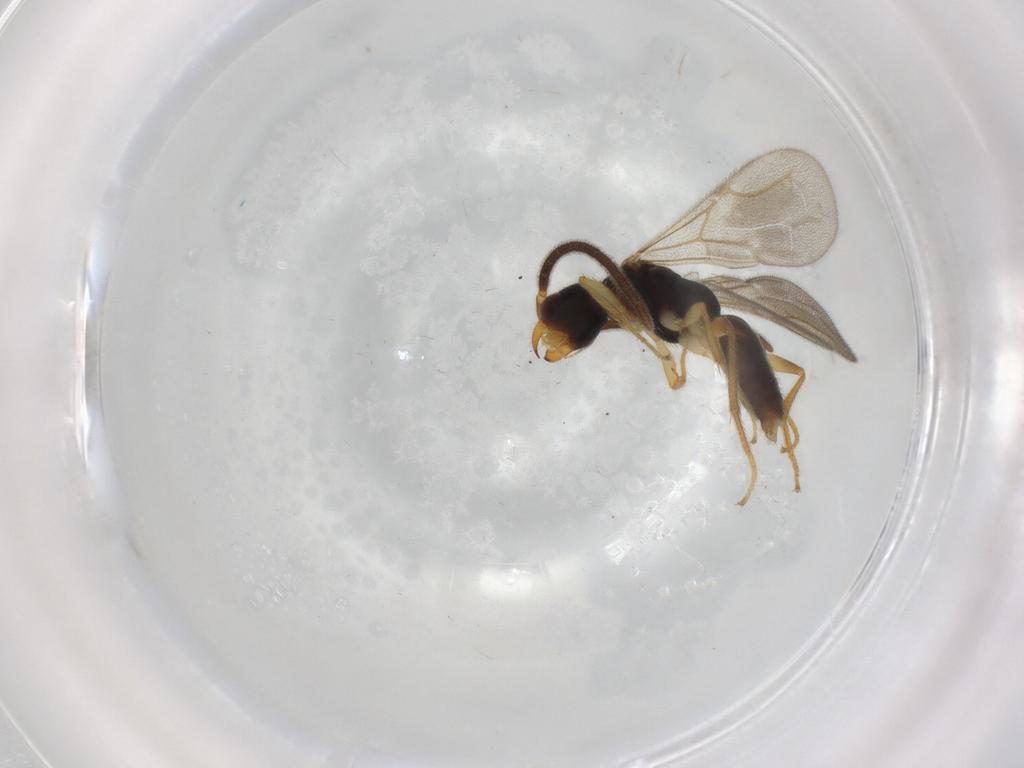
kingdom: Animalia
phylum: Arthropoda
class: Insecta
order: Hymenoptera
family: Bethylidae
